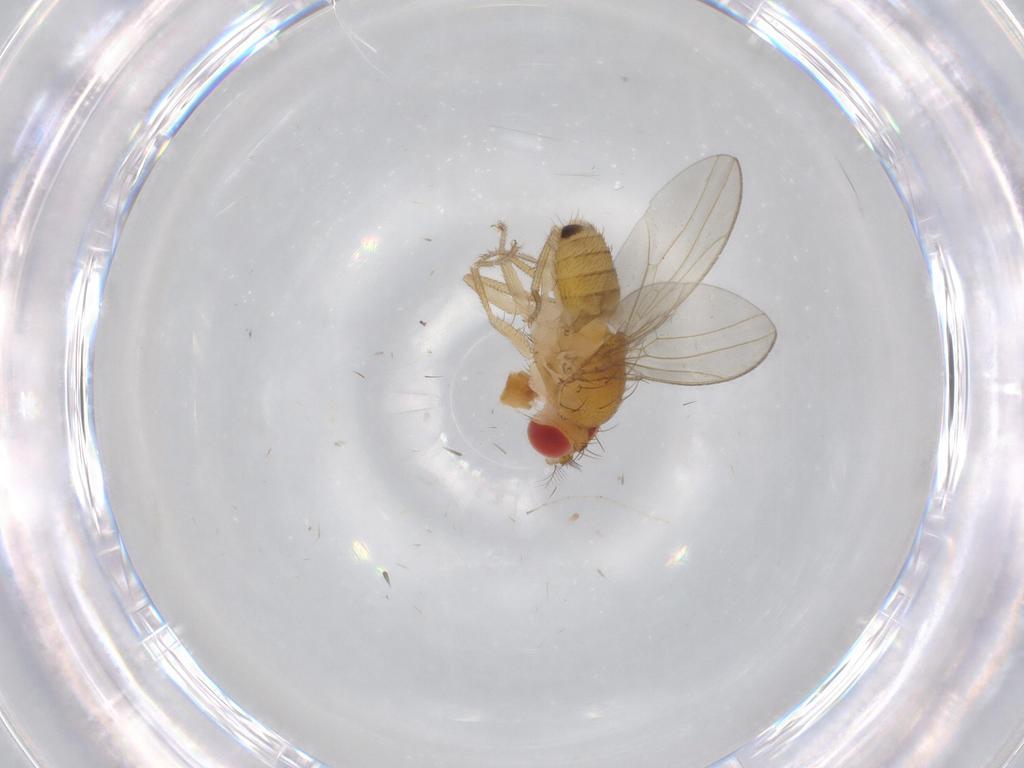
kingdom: Animalia
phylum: Arthropoda
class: Insecta
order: Diptera
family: Drosophilidae
